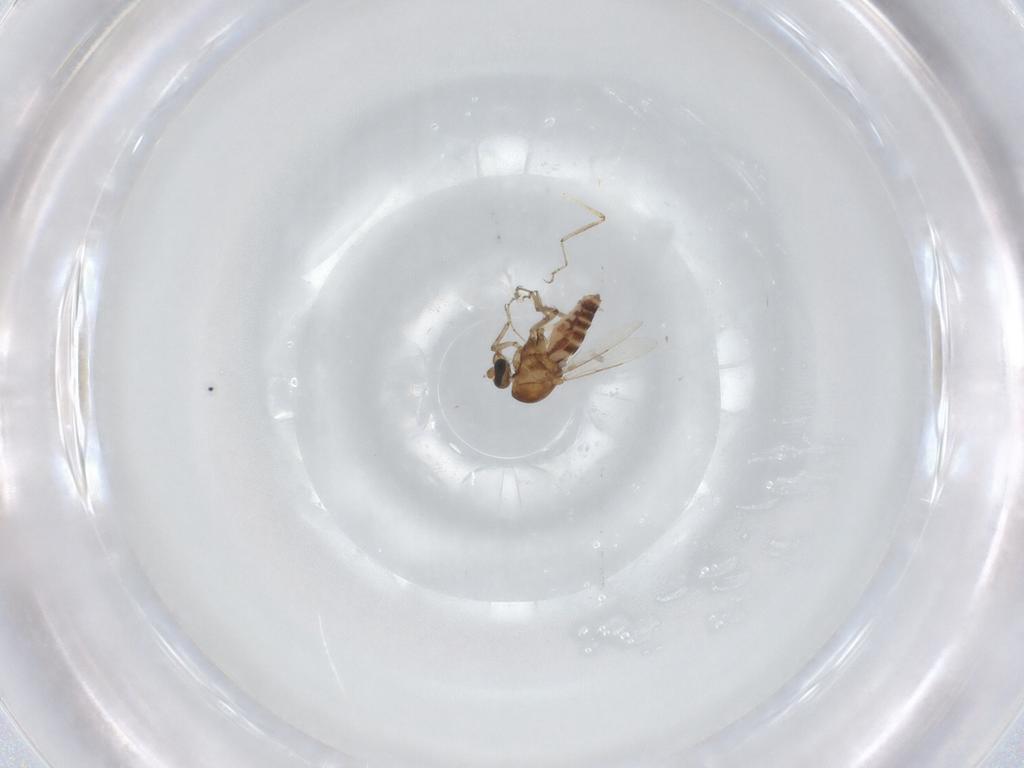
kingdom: Animalia
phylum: Arthropoda
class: Insecta
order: Diptera
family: Ceratopogonidae
